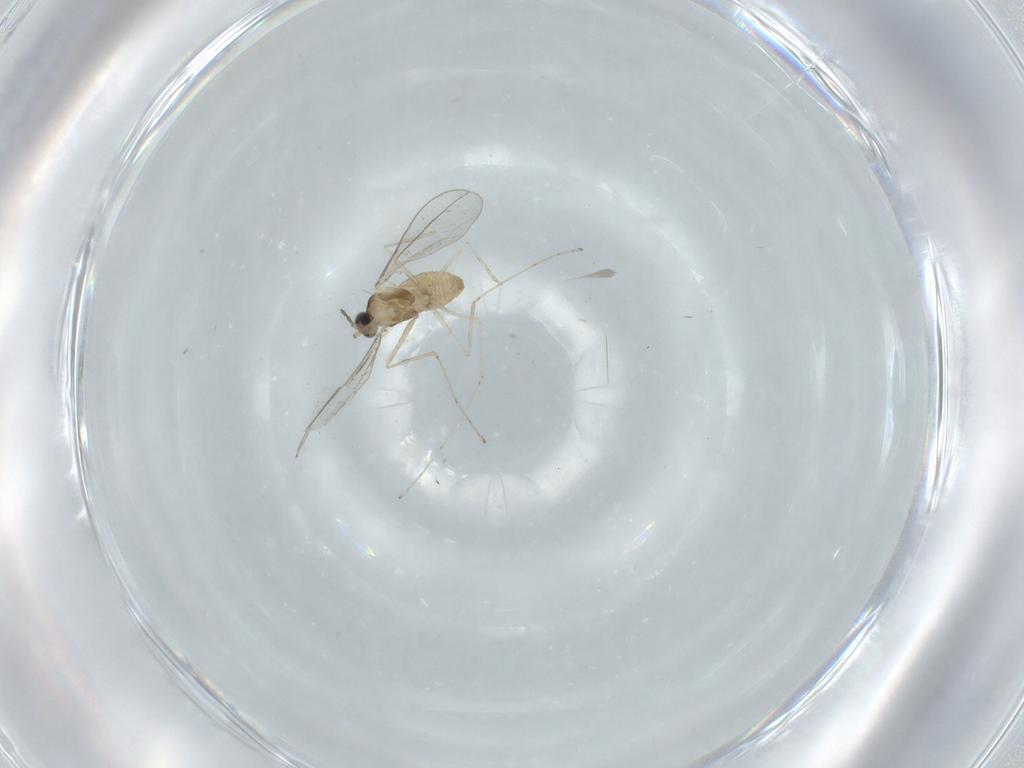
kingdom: Animalia
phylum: Arthropoda
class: Insecta
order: Diptera
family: Cecidomyiidae
